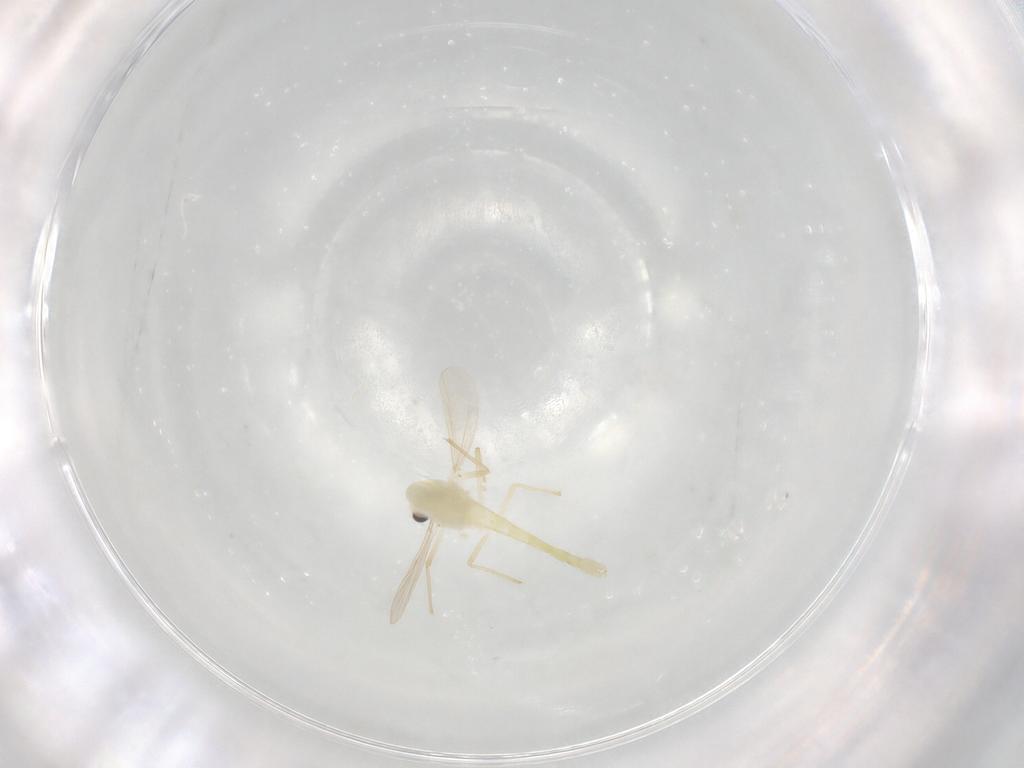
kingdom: Animalia
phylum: Arthropoda
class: Insecta
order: Diptera
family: Chironomidae
